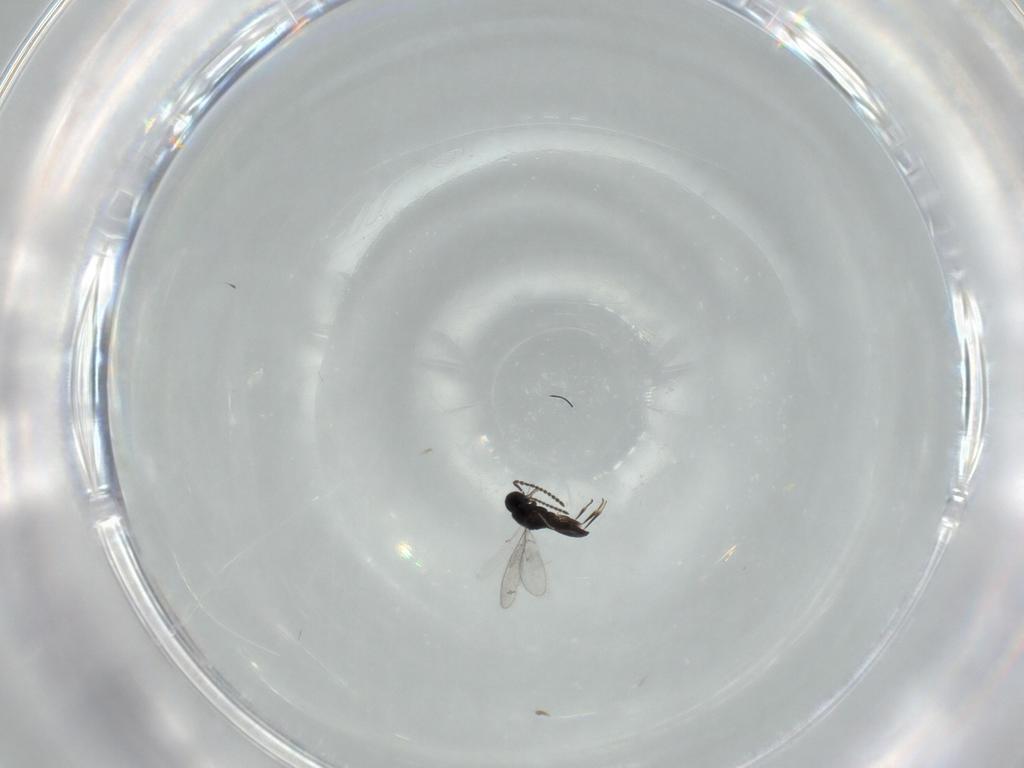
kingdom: Animalia
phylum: Arthropoda
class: Insecta
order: Hymenoptera
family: Scelionidae
